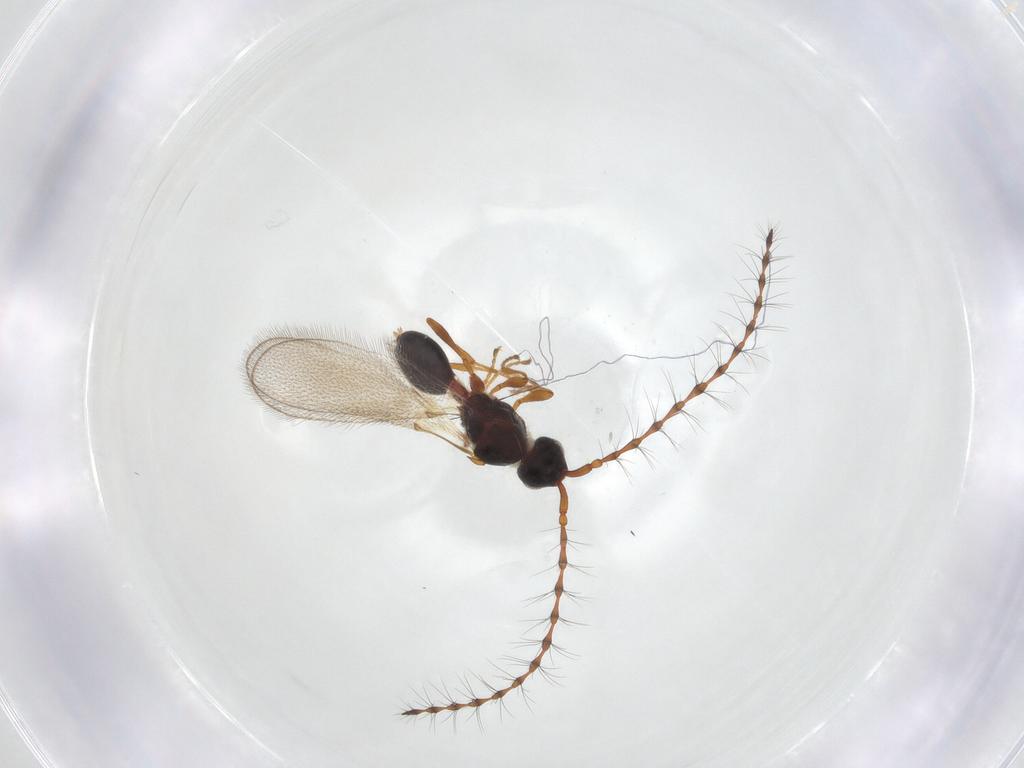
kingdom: Animalia
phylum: Arthropoda
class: Insecta
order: Hymenoptera
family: Diapriidae
